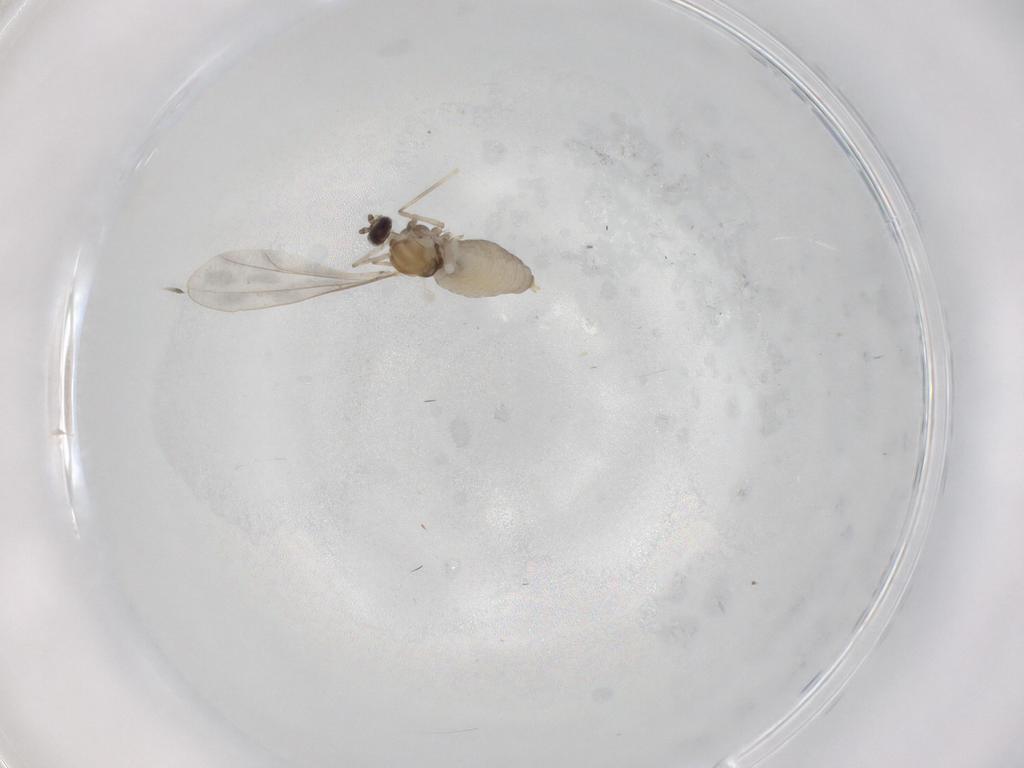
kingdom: Animalia
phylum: Arthropoda
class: Insecta
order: Diptera
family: Cecidomyiidae
